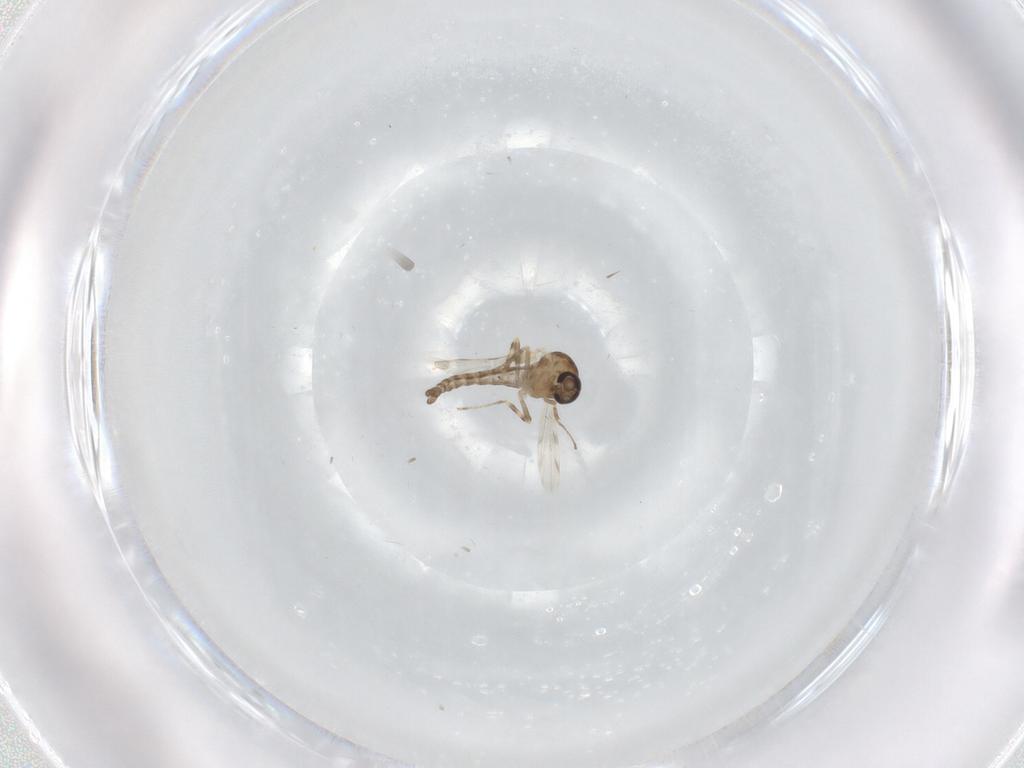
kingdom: Animalia
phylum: Arthropoda
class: Insecta
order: Diptera
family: Ceratopogonidae
